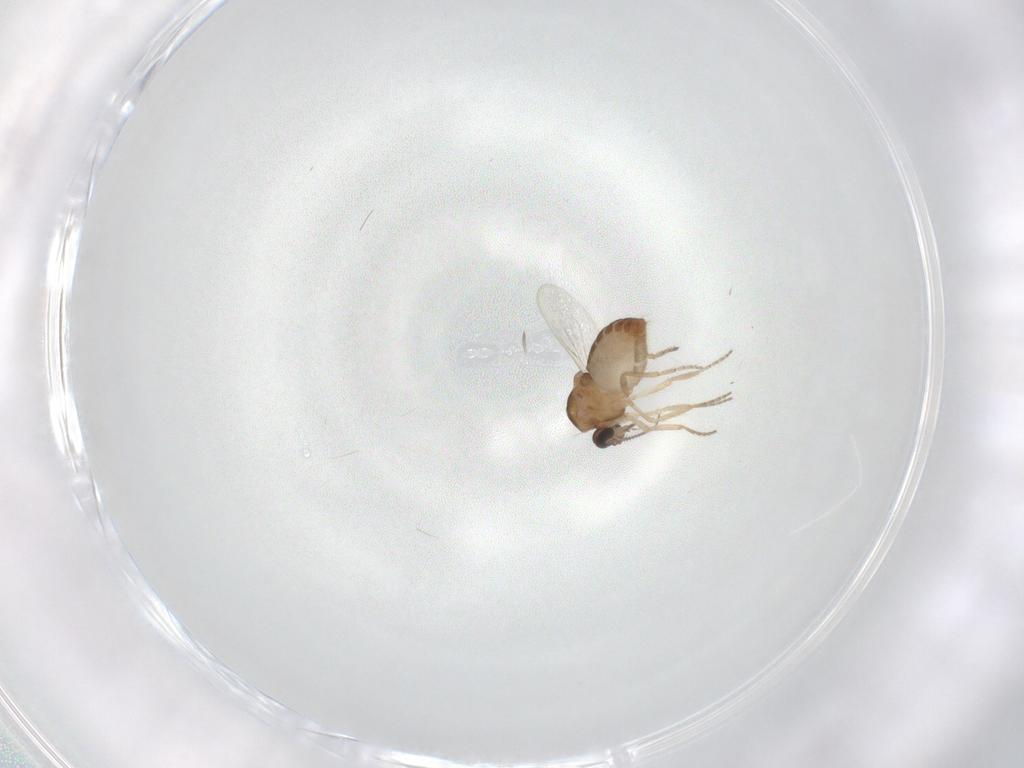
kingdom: Animalia
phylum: Arthropoda
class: Insecta
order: Diptera
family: Ceratopogonidae
